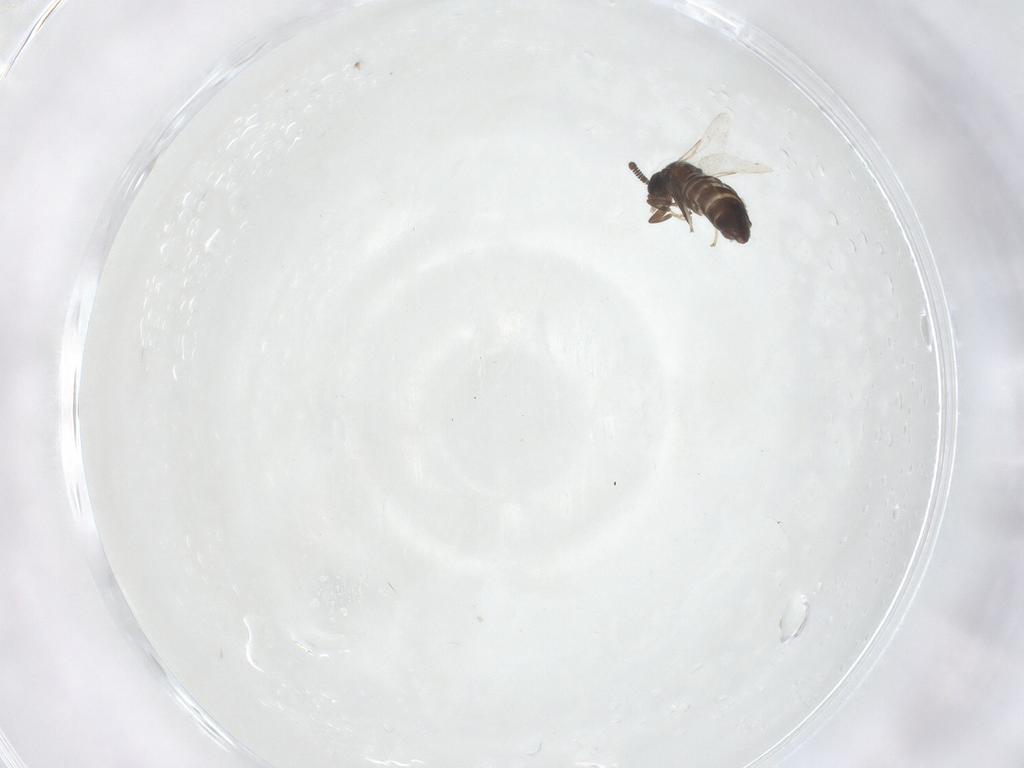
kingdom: Animalia
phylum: Arthropoda
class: Insecta
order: Diptera
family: Scatopsidae
